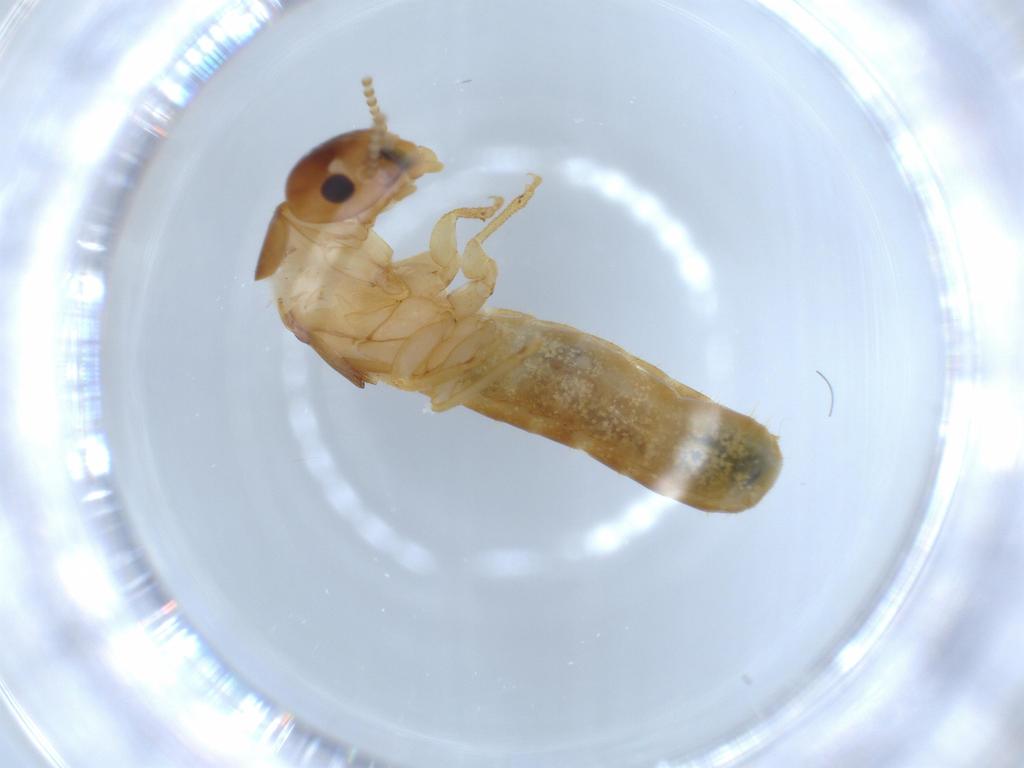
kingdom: Animalia
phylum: Arthropoda
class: Insecta
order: Blattodea
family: Kalotermitidae
